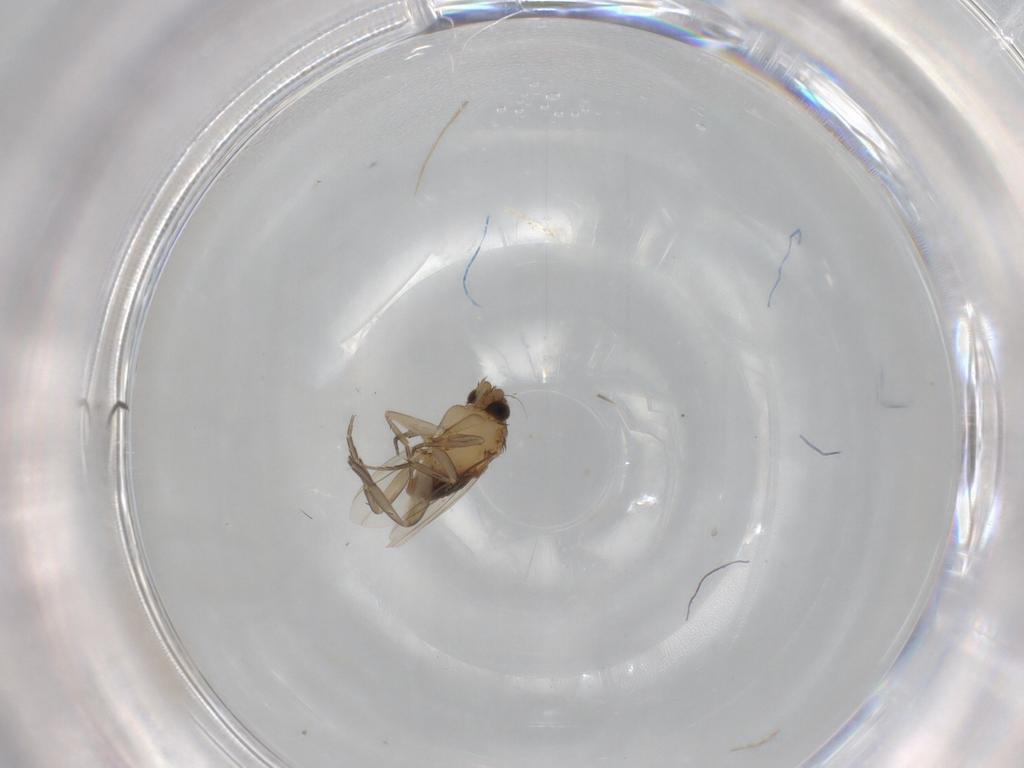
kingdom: Animalia
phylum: Arthropoda
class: Insecta
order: Diptera
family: Phoridae
